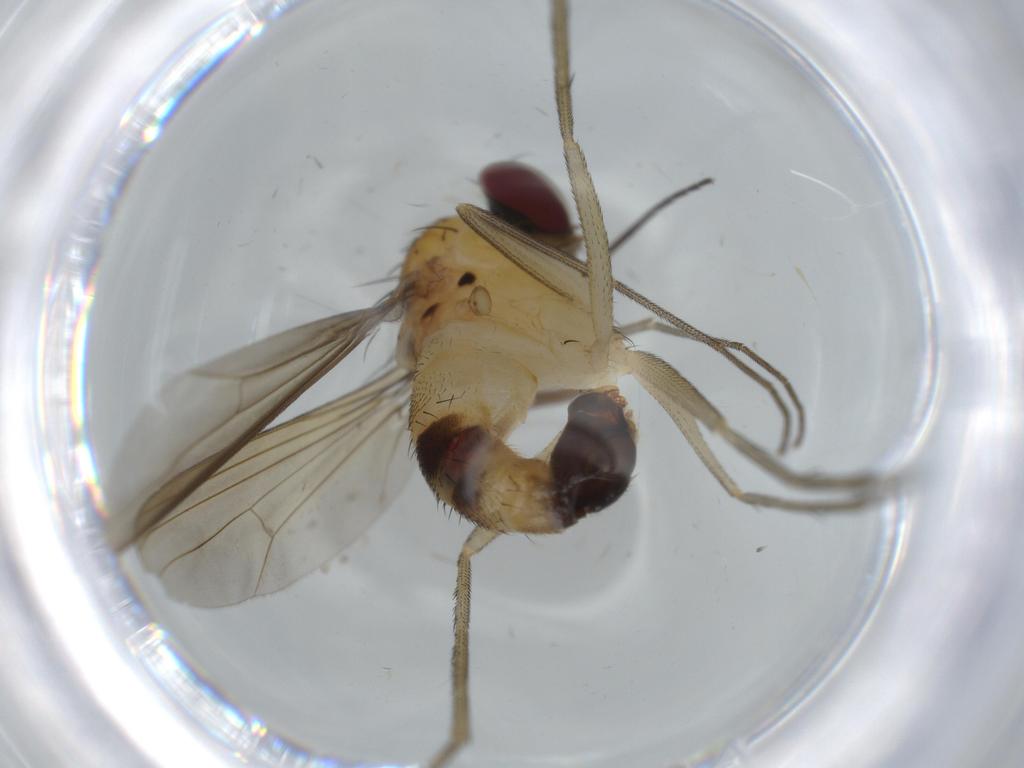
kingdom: Animalia
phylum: Arthropoda
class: Insecta
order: Diptera
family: Dolichopodidae
